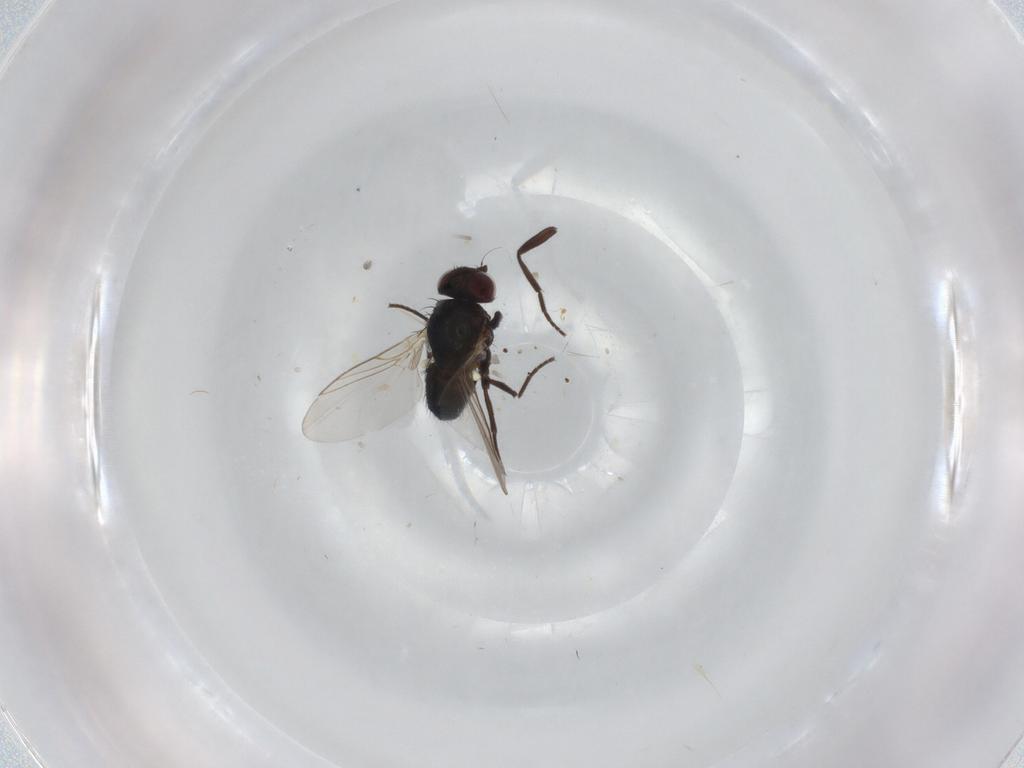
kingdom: Animalia
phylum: Arthropoda
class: Insecta
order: Diptera
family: Agromyzidae
